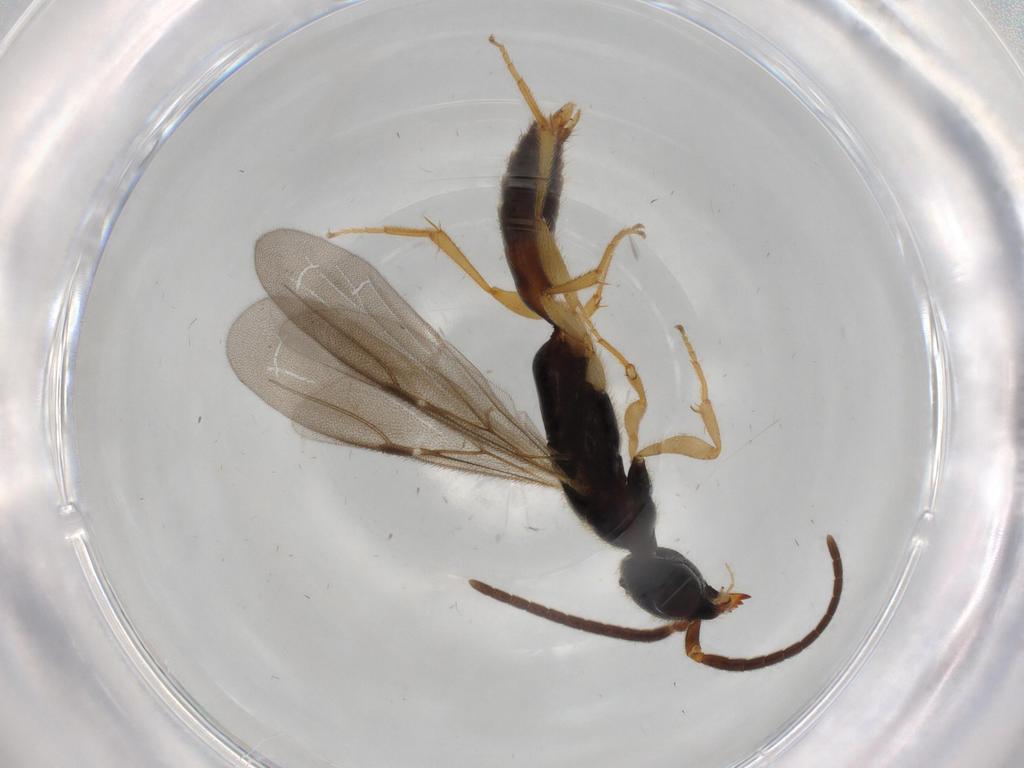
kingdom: Animalia
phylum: Arthropoda
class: Insecta
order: Hymenoptera
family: Bethylidae
